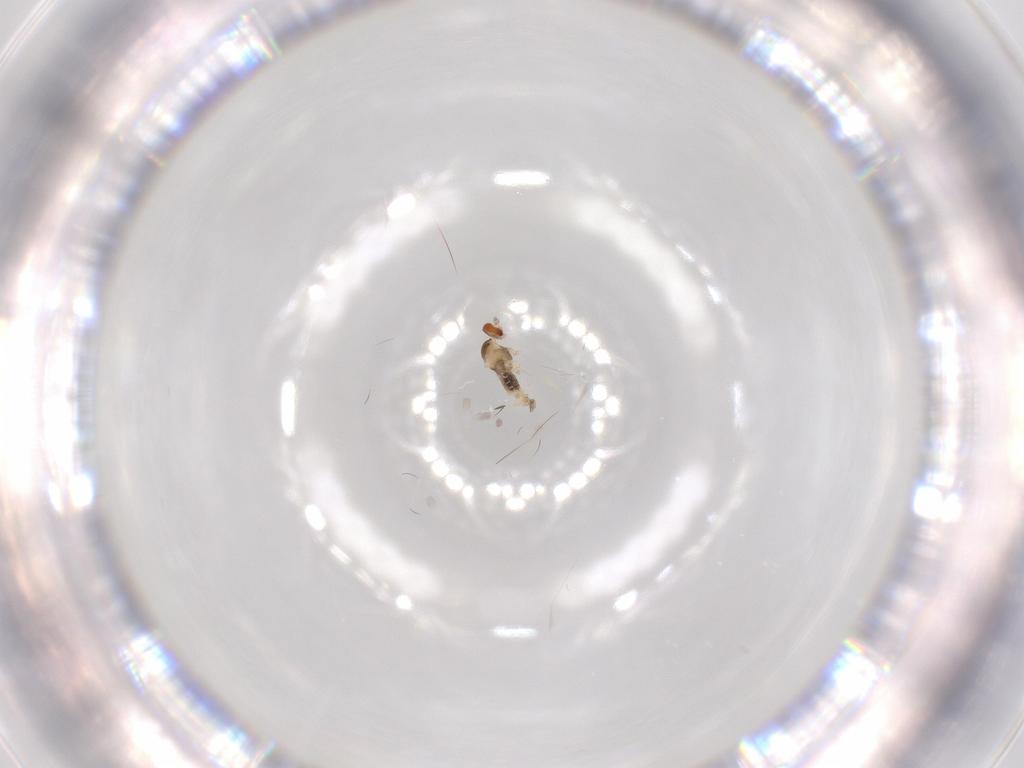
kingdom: Animalia
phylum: Arthropoda
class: Insecta
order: Diptera
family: Cecidomyiidae
